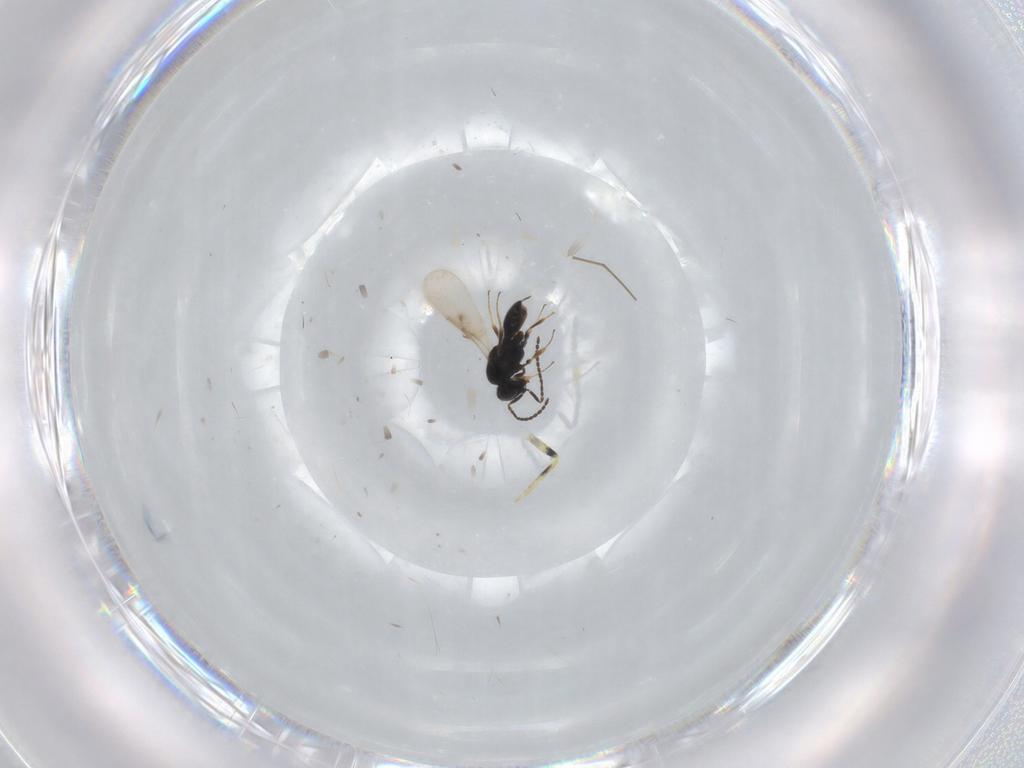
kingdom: Animalia
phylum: Arthropoda
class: Insecta
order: Hymenoptera
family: Scelionidae
